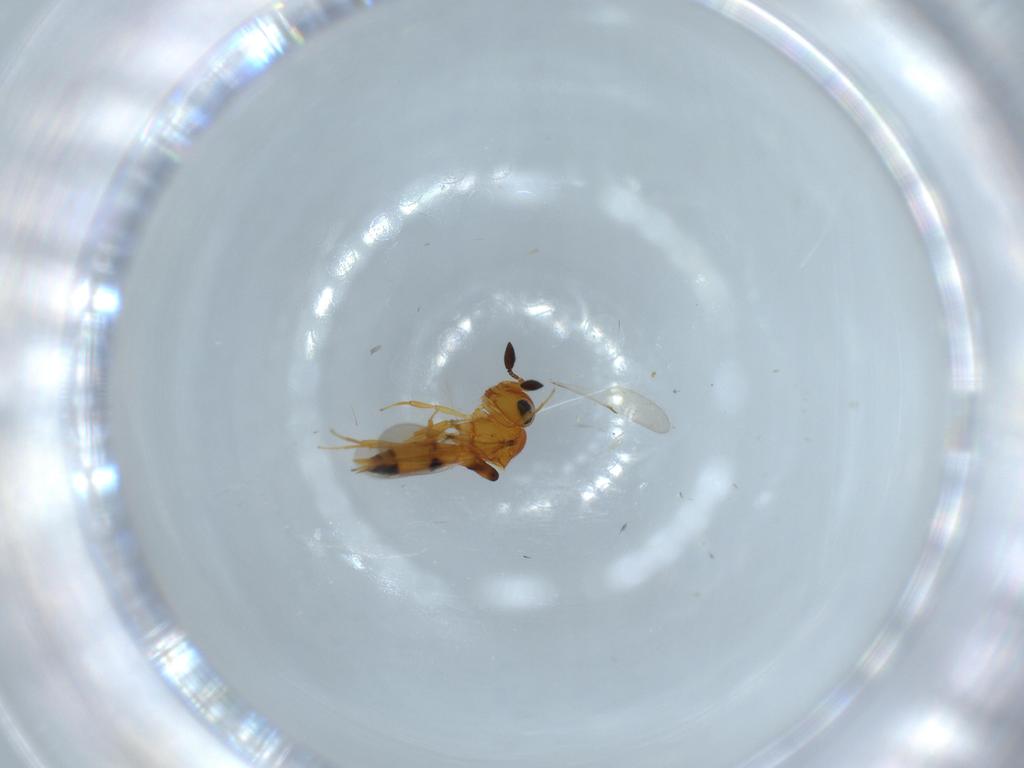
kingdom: Animalia
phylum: Arthropoda
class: Insecta
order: Hymenoptera
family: Scelionidae
